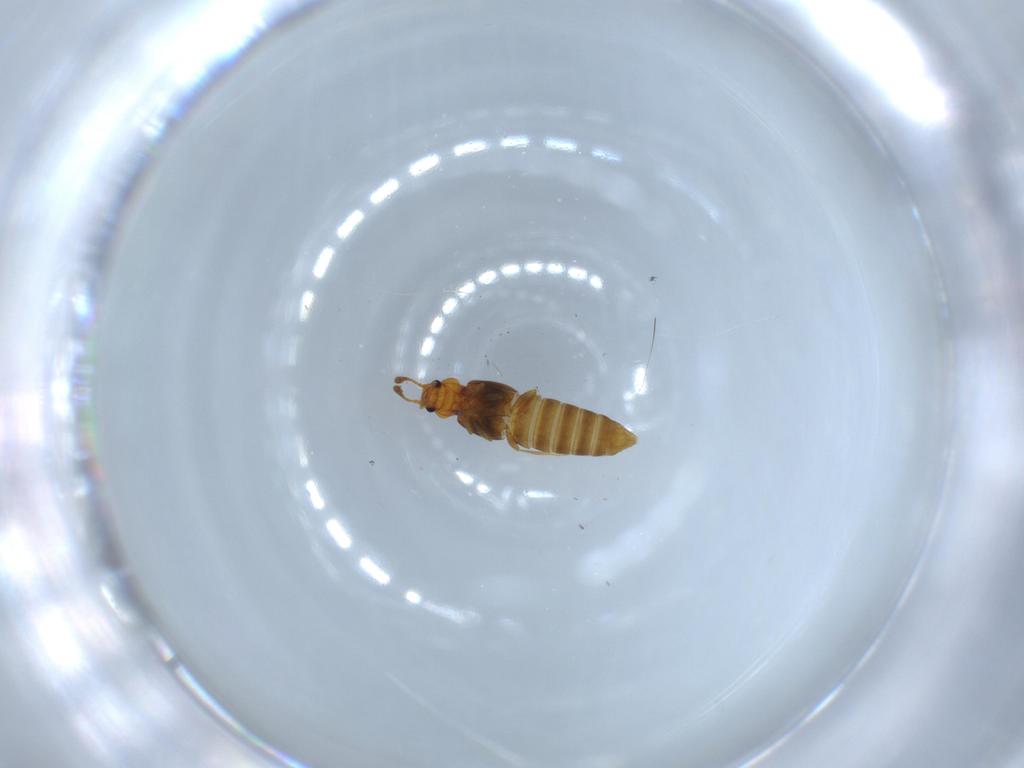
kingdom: Animalia
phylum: Arthropoda
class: Insecta
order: Coleoptera
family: Staphylinidae
